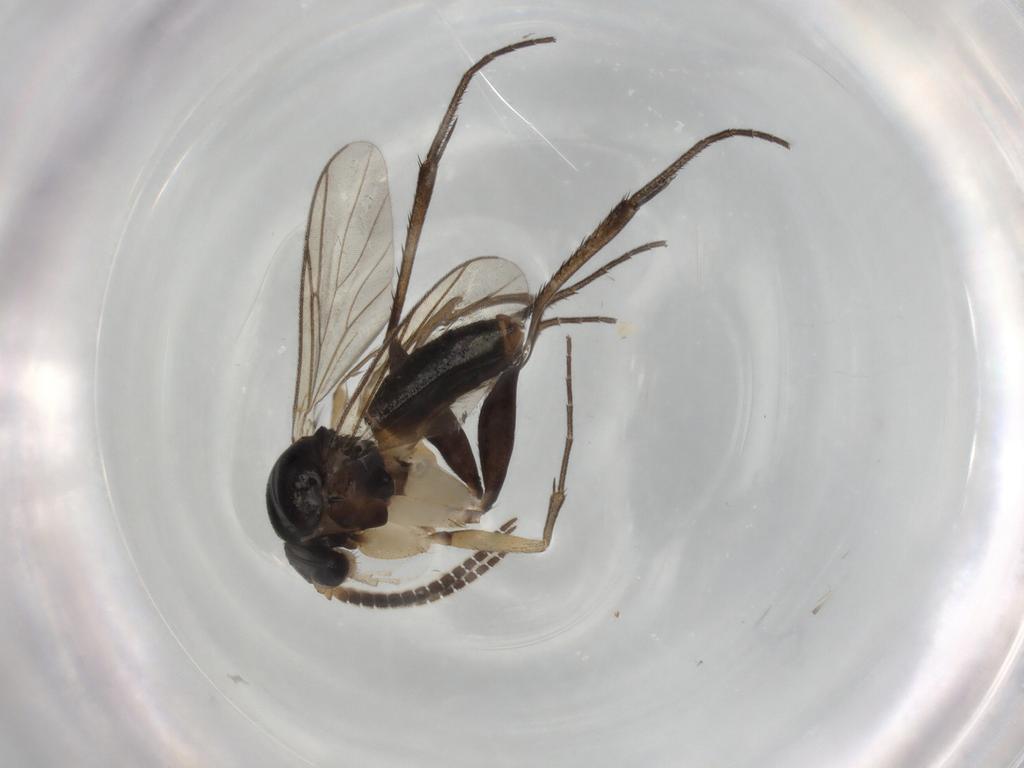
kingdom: Animalia
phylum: Arthropoda
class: Insecta
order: Diptera
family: Mycetophilidae
